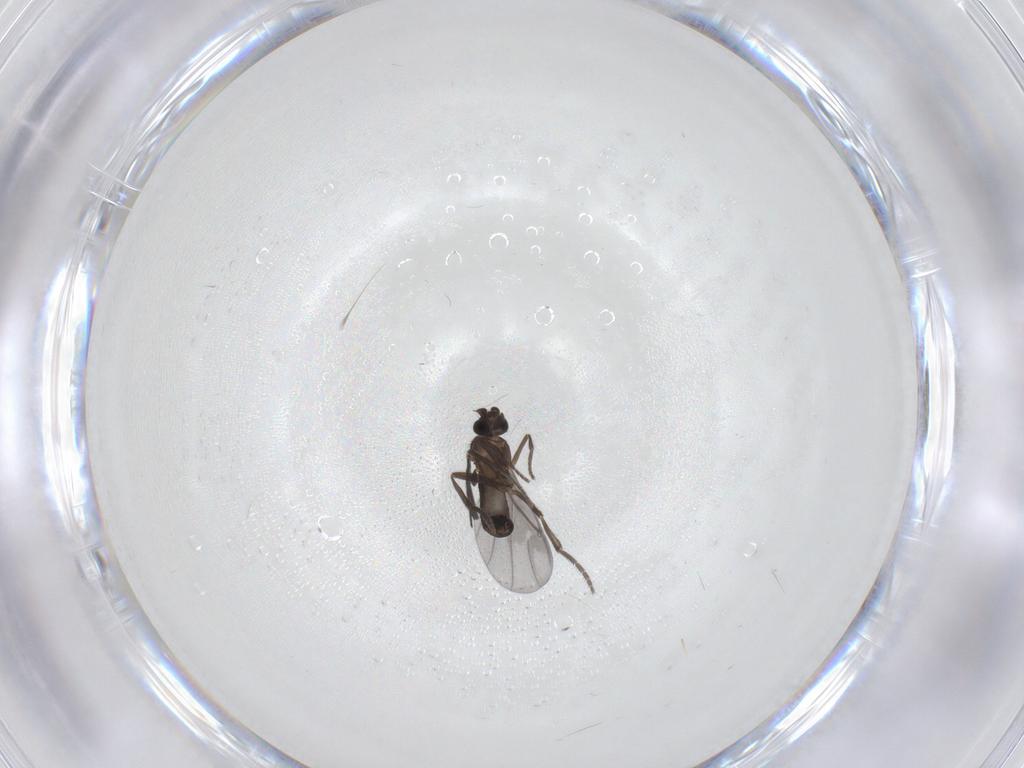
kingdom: Animalia
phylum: Arthropoda
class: Insecta
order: Diptera
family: Phoridae
